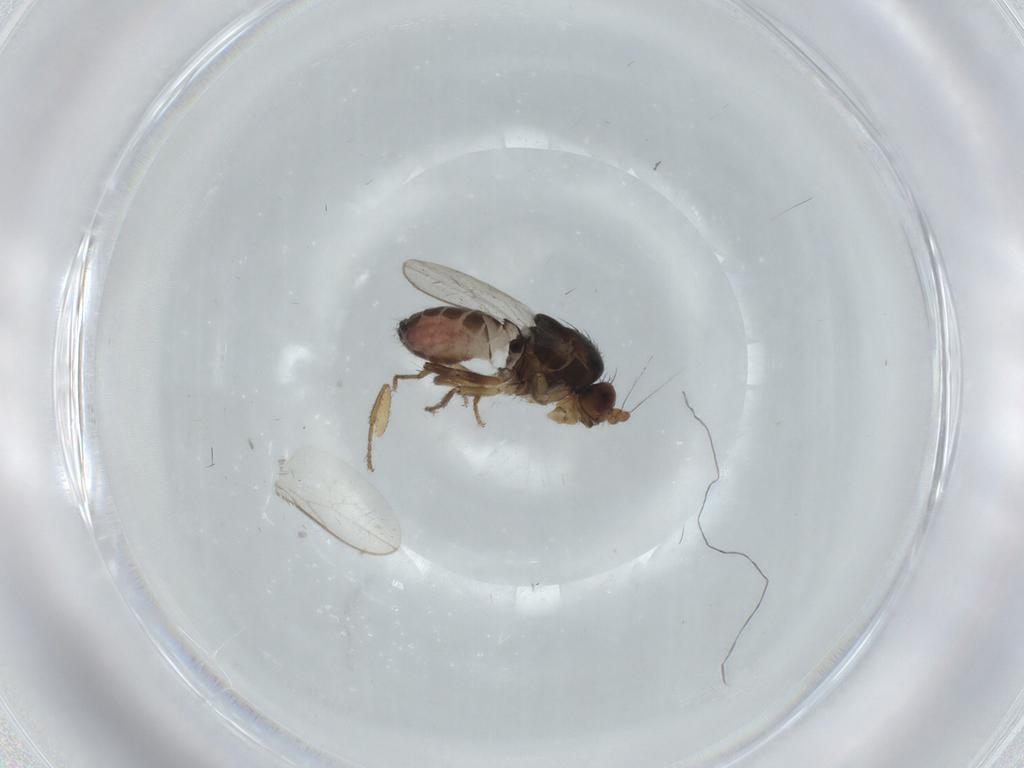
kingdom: Animalia
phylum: Arthropoda
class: Insecta
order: Diptera
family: Sphaeroceridae
